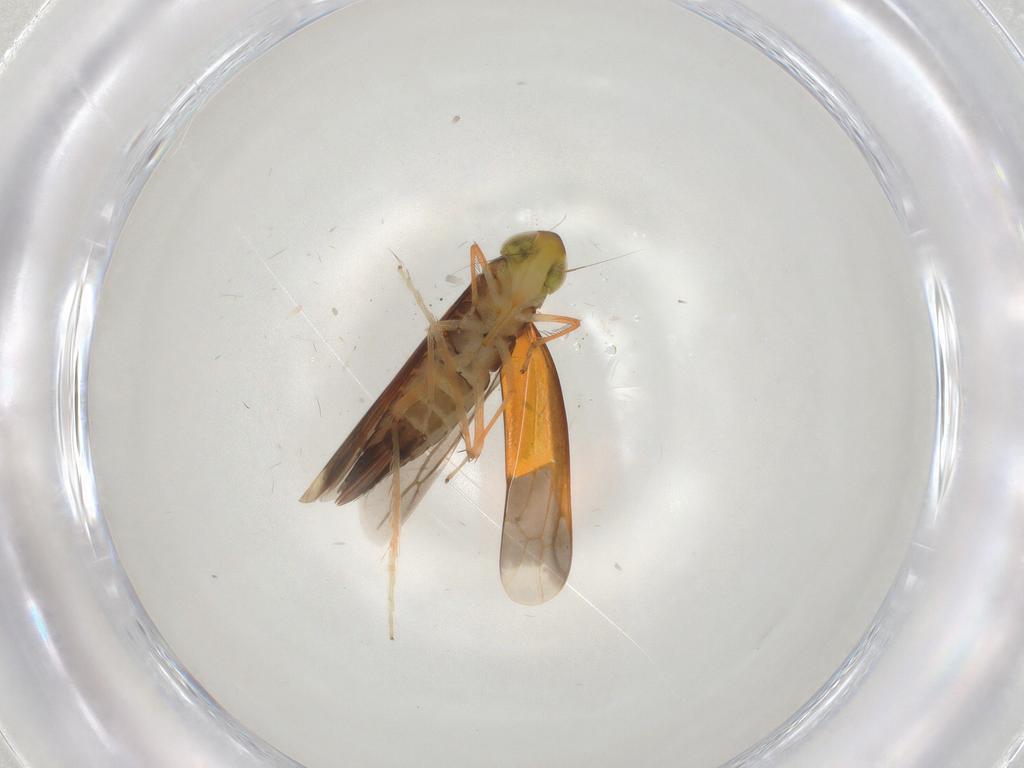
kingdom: Animalia
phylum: Arthropoda
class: Insecta
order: Hemiptera
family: Cicadellidae
